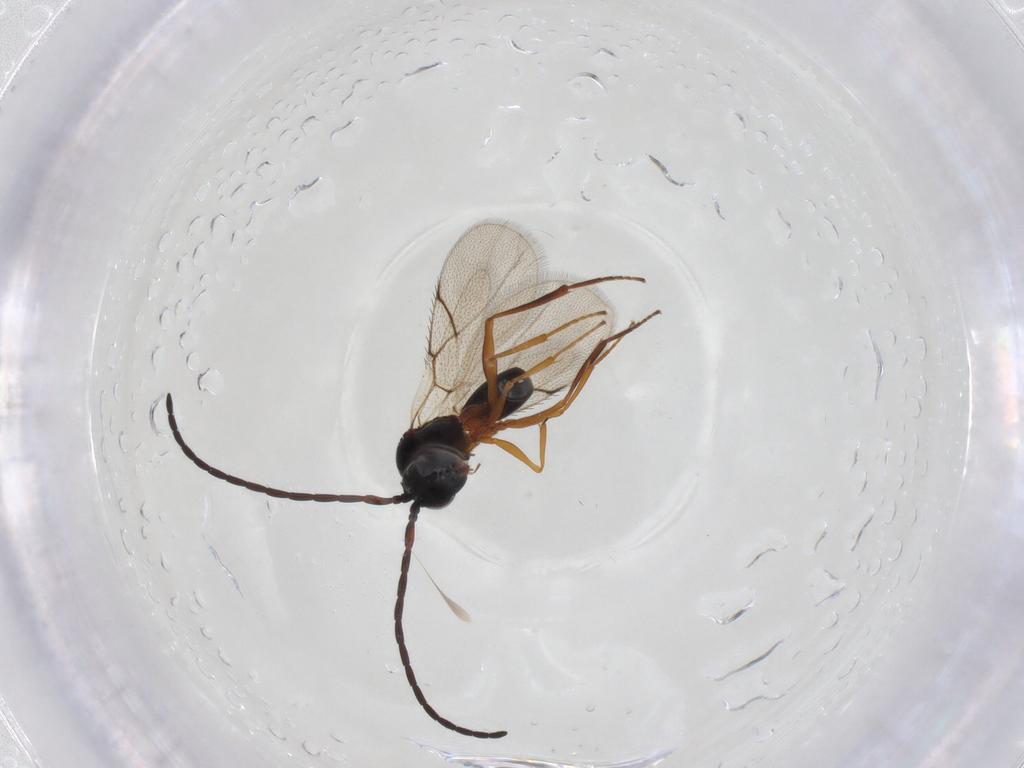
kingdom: Animalia
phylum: Arthropoda
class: Insecta
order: Hymenoptera
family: Figitidae
